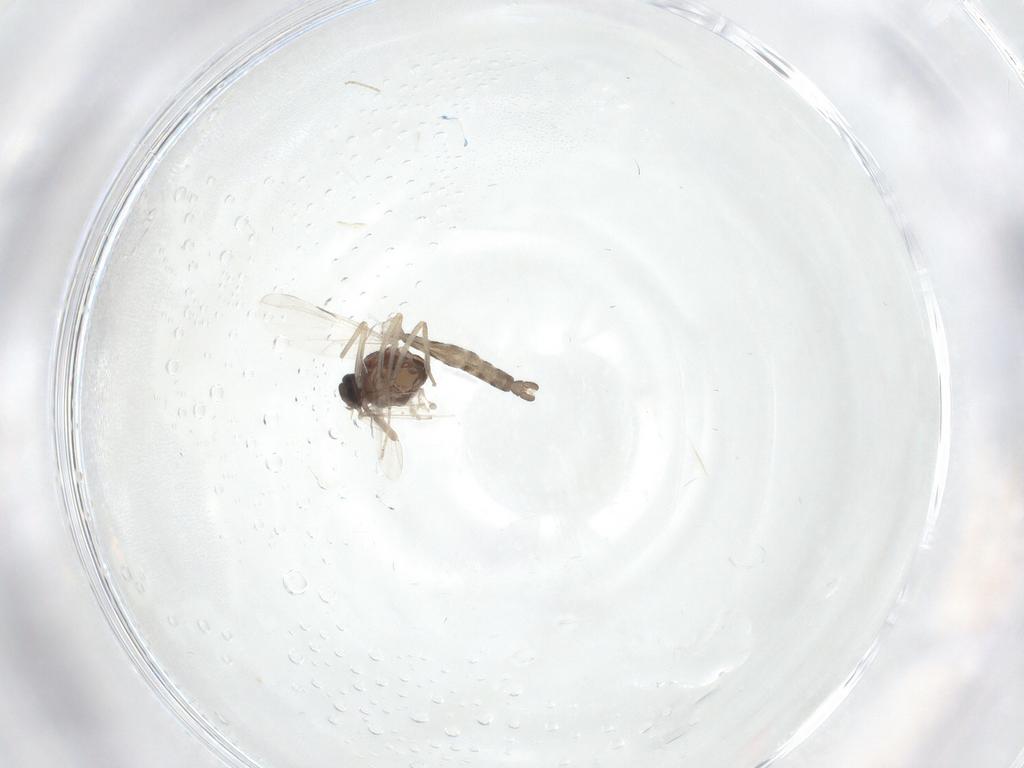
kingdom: Animalia
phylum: Arthropoda
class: Insecta
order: Diptera
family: Ceratopogonidae
